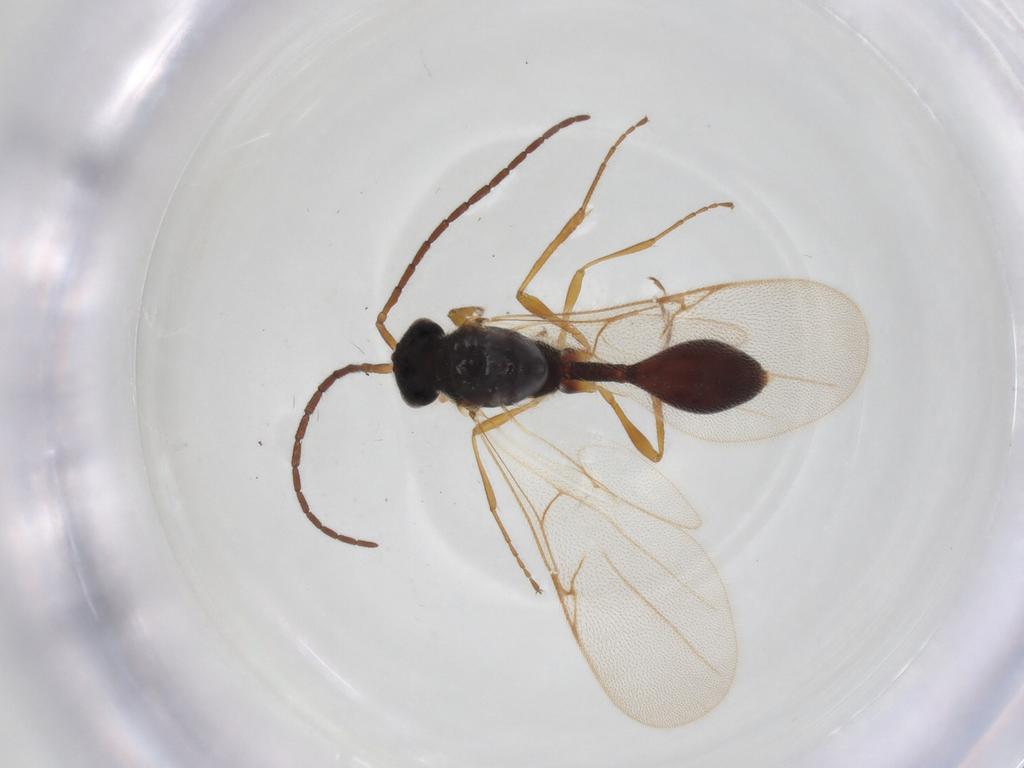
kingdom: Animalia
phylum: Arthropoda
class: Insecta
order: Hymenoptera
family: Diapriidae
